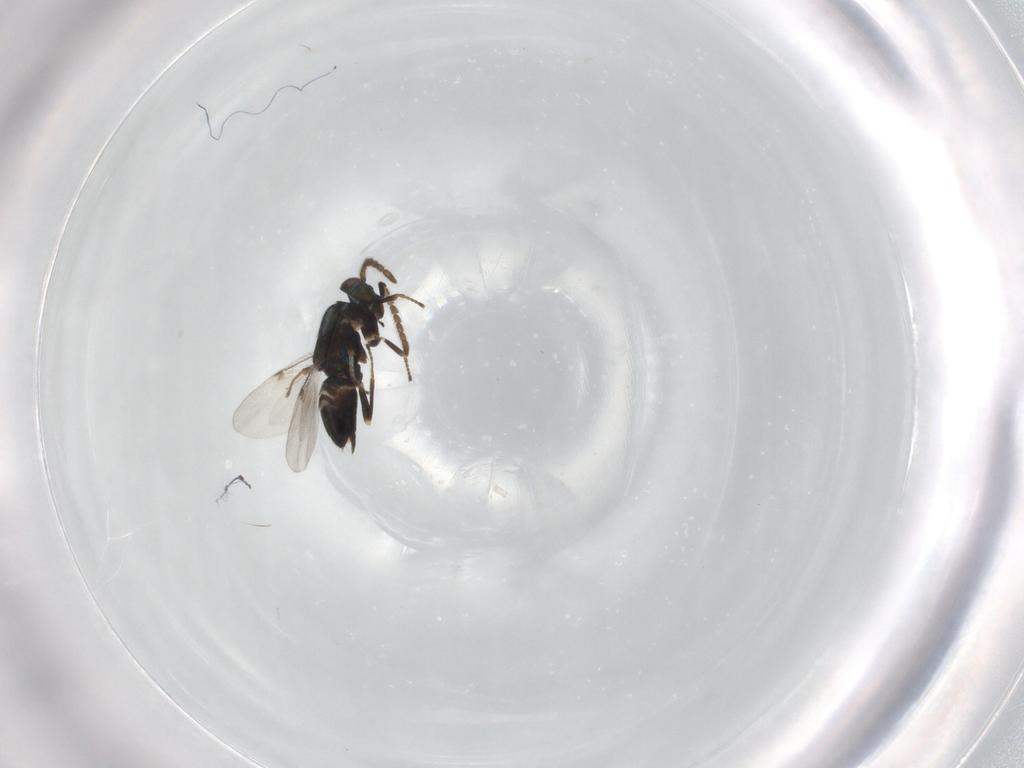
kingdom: Animalia
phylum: Arthropoda
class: Insecta
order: Hymenoptera
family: Encyrtidae
